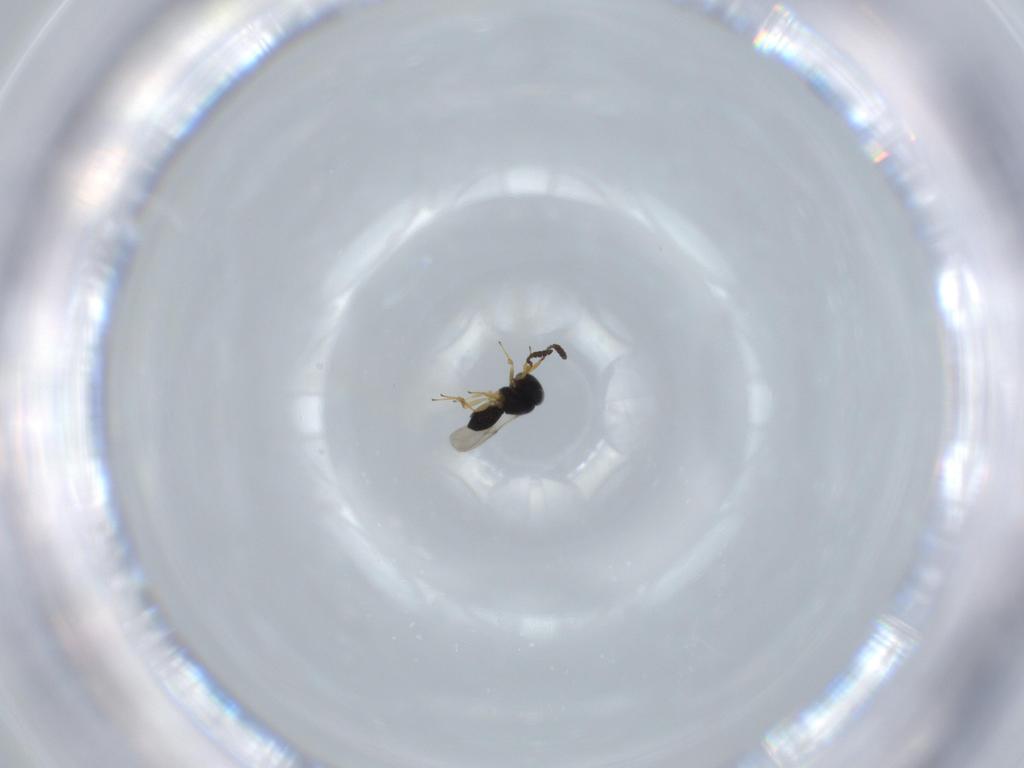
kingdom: Animalia
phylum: Arthropoda
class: Insecta
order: Hymenoptera
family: Scelionidae
